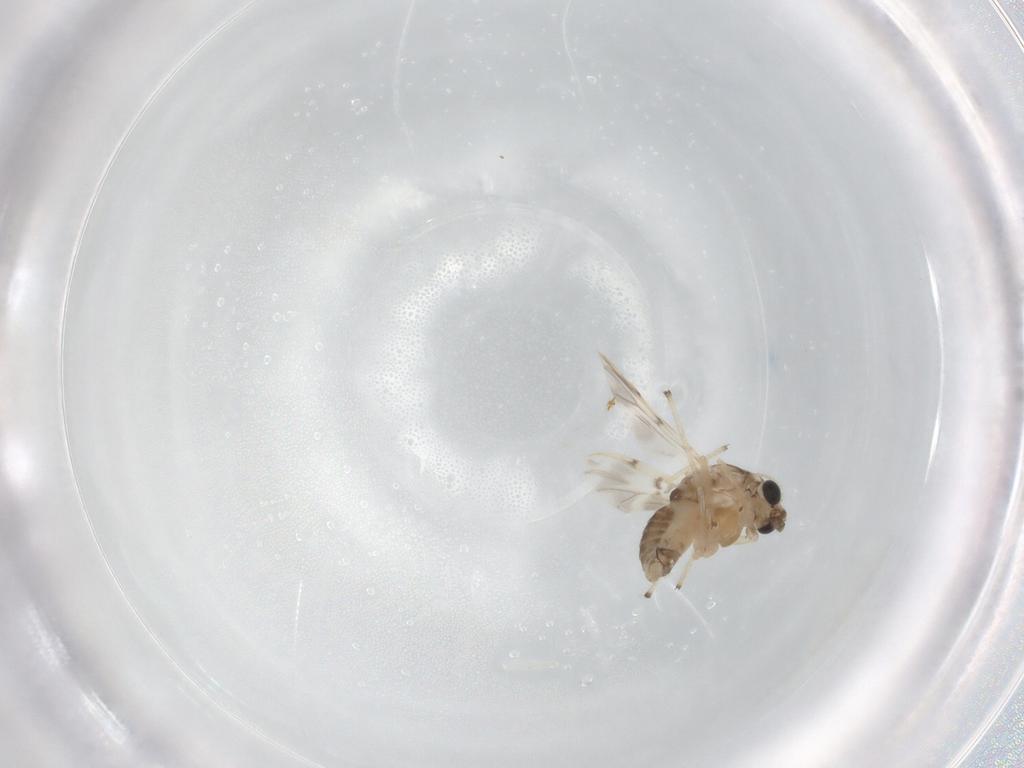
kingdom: Animalia
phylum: Arthropoda
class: Insecta
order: Diptera
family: Chironomidae
